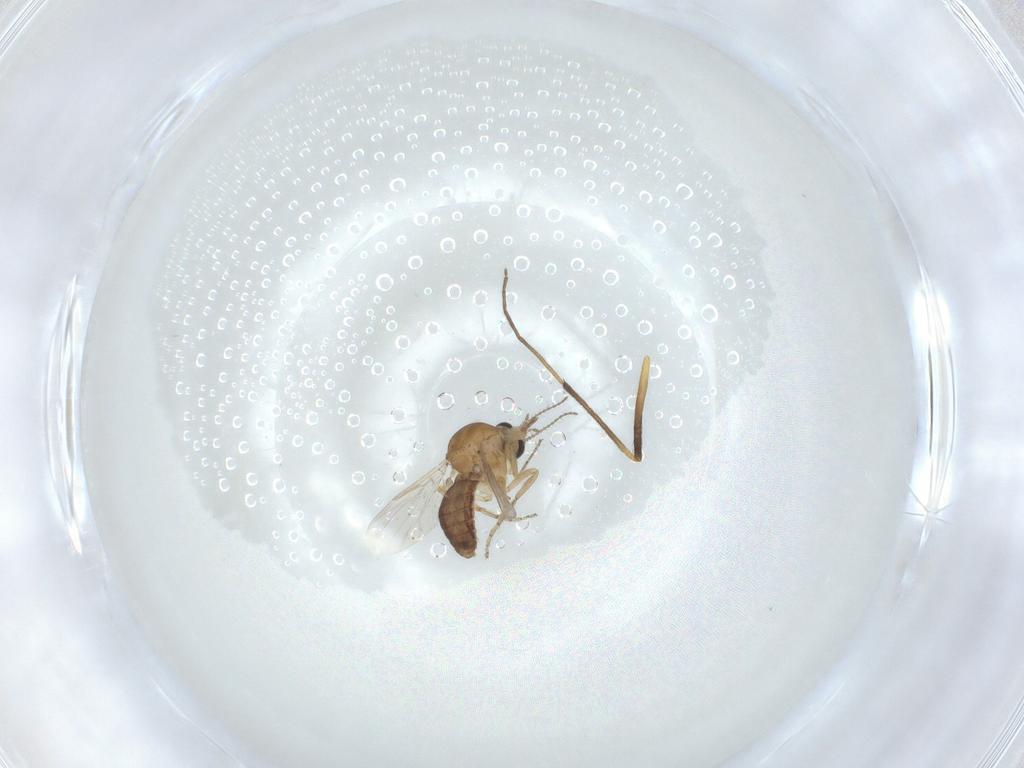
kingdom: Animalia
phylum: Arthropoda
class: Insecta
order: Diptera
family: Ceratopogonidae
